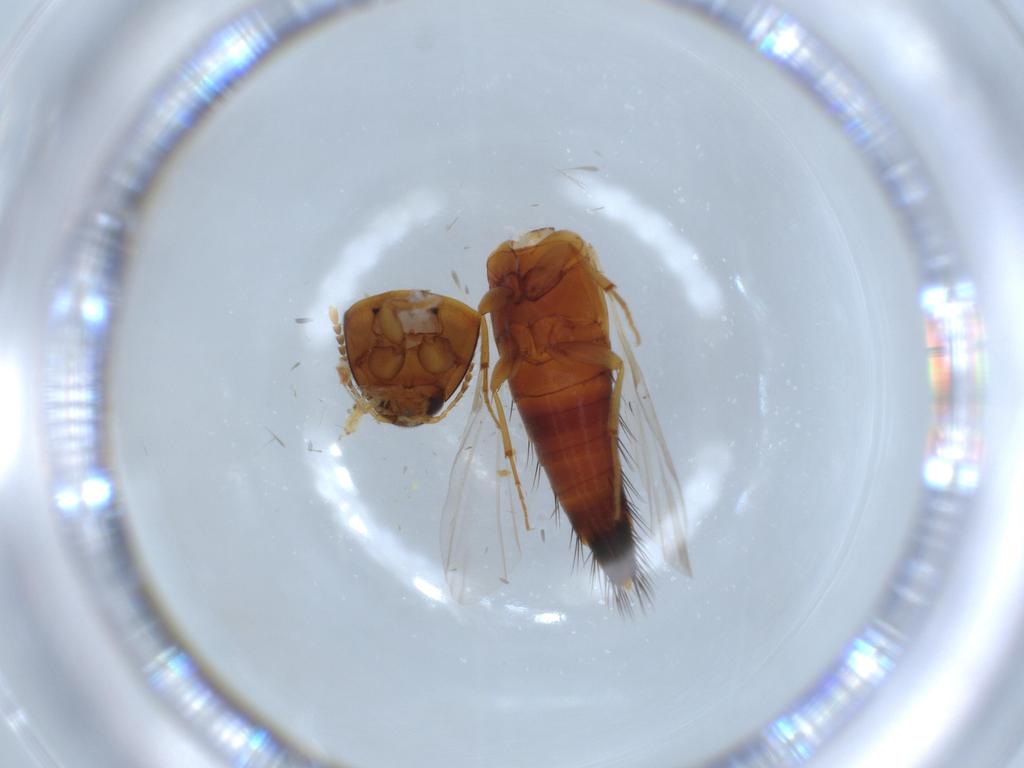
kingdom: Animalia
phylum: Arthropoda
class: Insecta
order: Coleoptera
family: Staphylinidae
